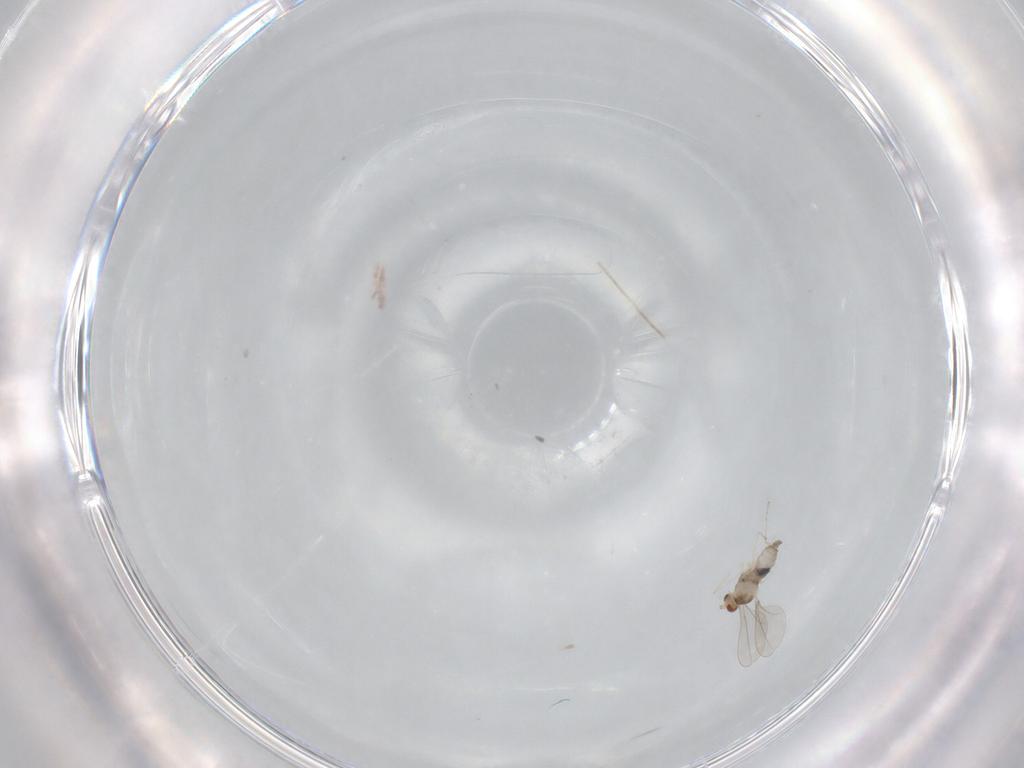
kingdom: Animalia
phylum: Arthropoda
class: Insecta
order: Diptera
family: Cecidomyiidae
